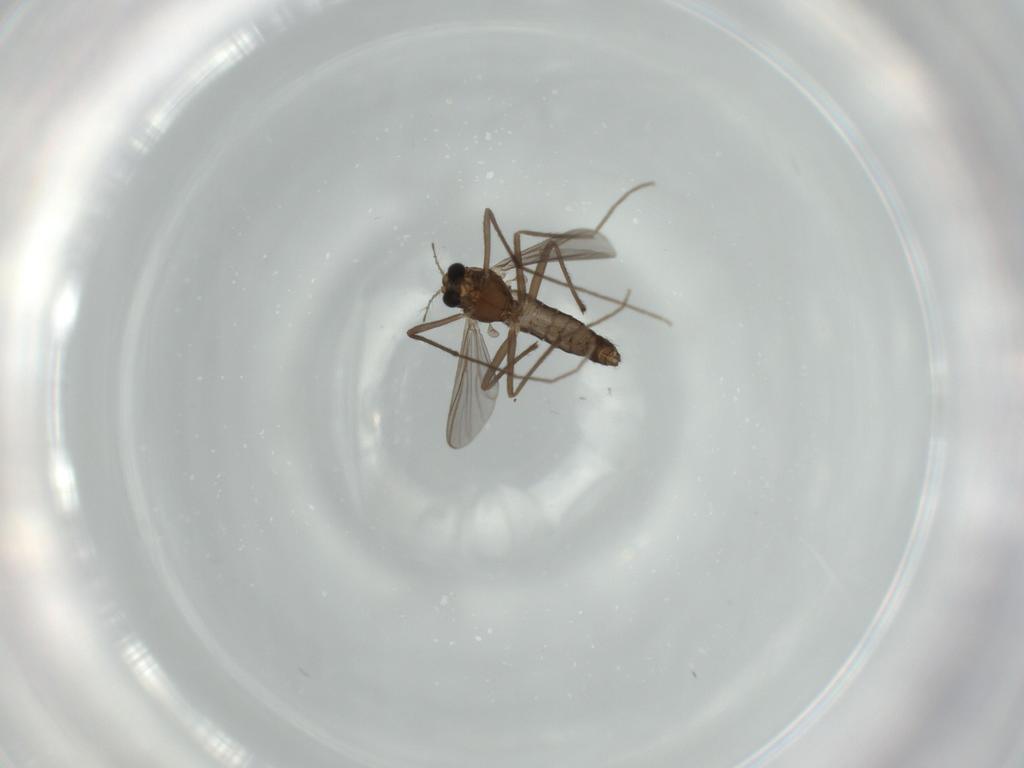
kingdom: Animalia
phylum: Arthropoda
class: Insecta
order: Diptera
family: Chironomidae
